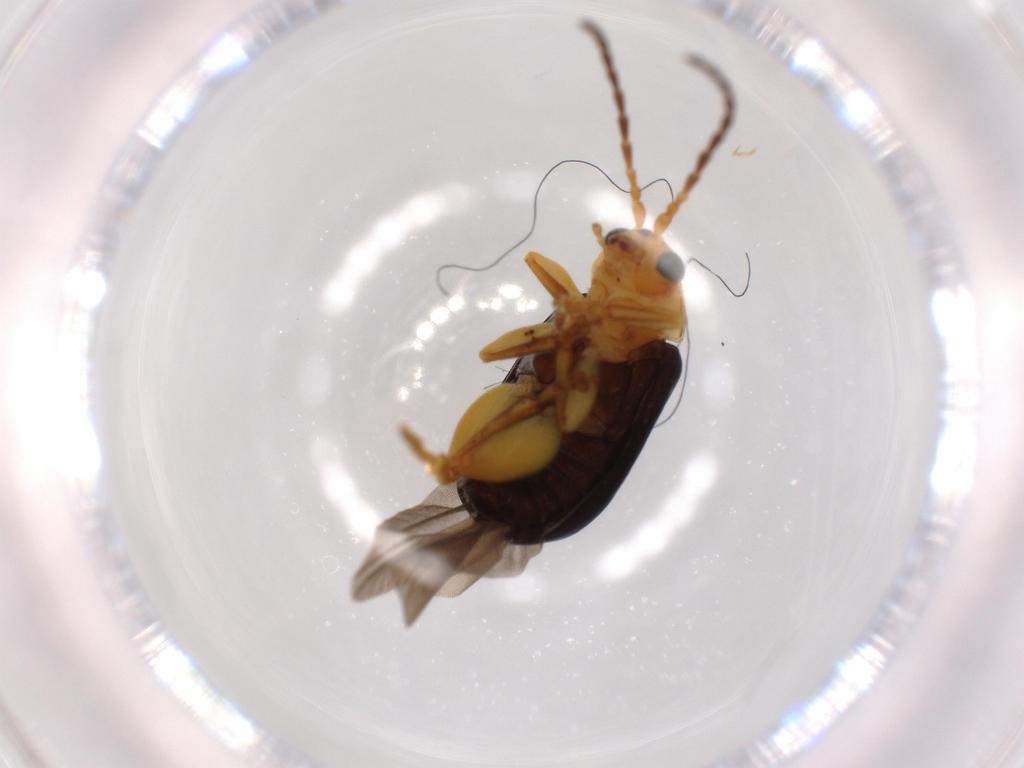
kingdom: Animalia
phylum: Arthropoda
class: Insecta
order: Coleoptera
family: Chrysomelidae
